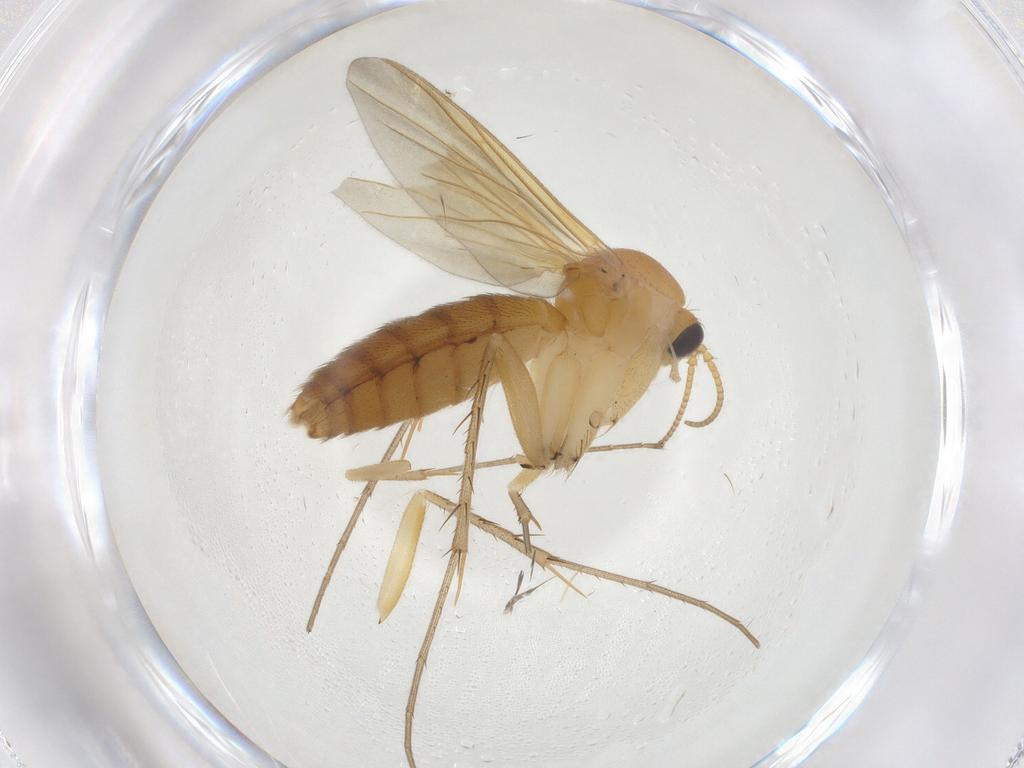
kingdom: Animalia
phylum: Arthropoda
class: Insecta
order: Diptera
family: Mycetophilidae
